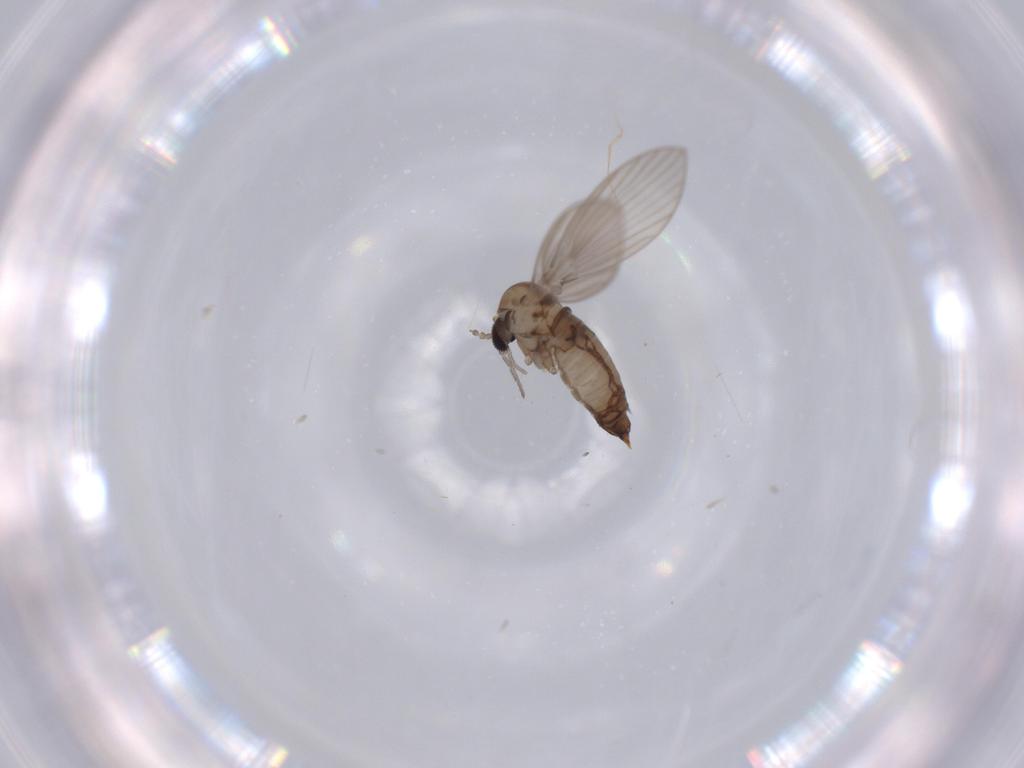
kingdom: Animalia
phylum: Arthropoda
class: Insecta
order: Diptera
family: Psychodidae
